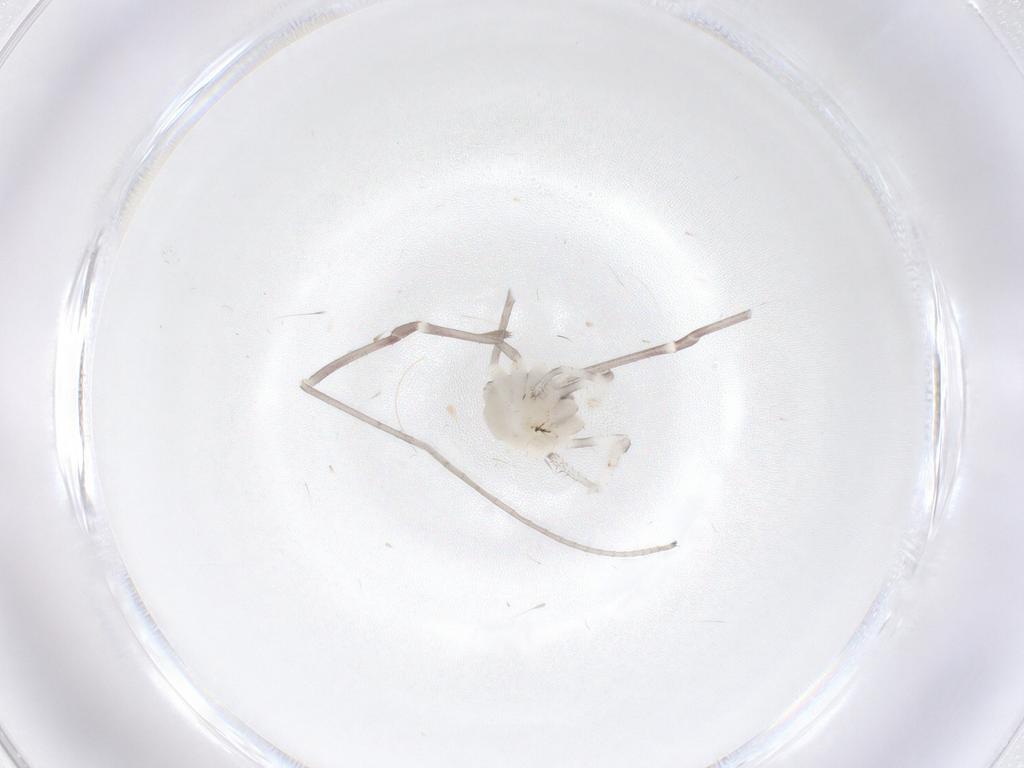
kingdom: Animalia
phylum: Arthropoda
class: Arachnida
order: Opiliones
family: Sclerosomatidae
